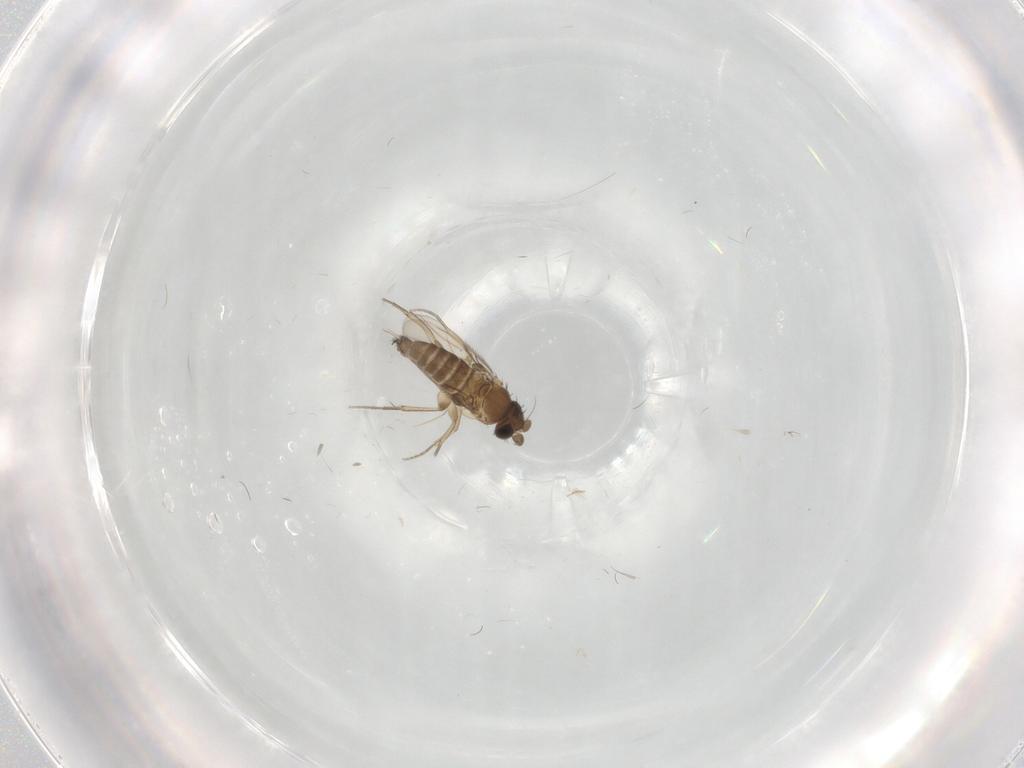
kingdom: Animalia
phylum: Arthropoda
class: Insecta
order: Diptera
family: Phoridae
